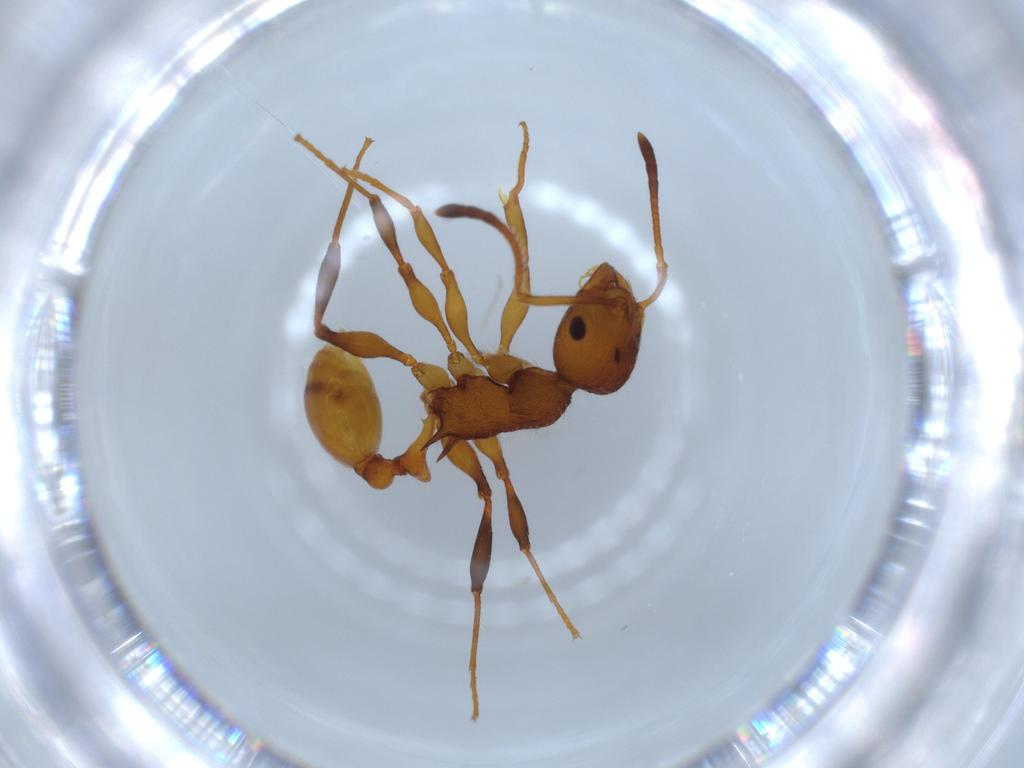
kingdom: Animalia
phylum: Arthropoda
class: Insecta
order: Hymenoptera
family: Formicidae
